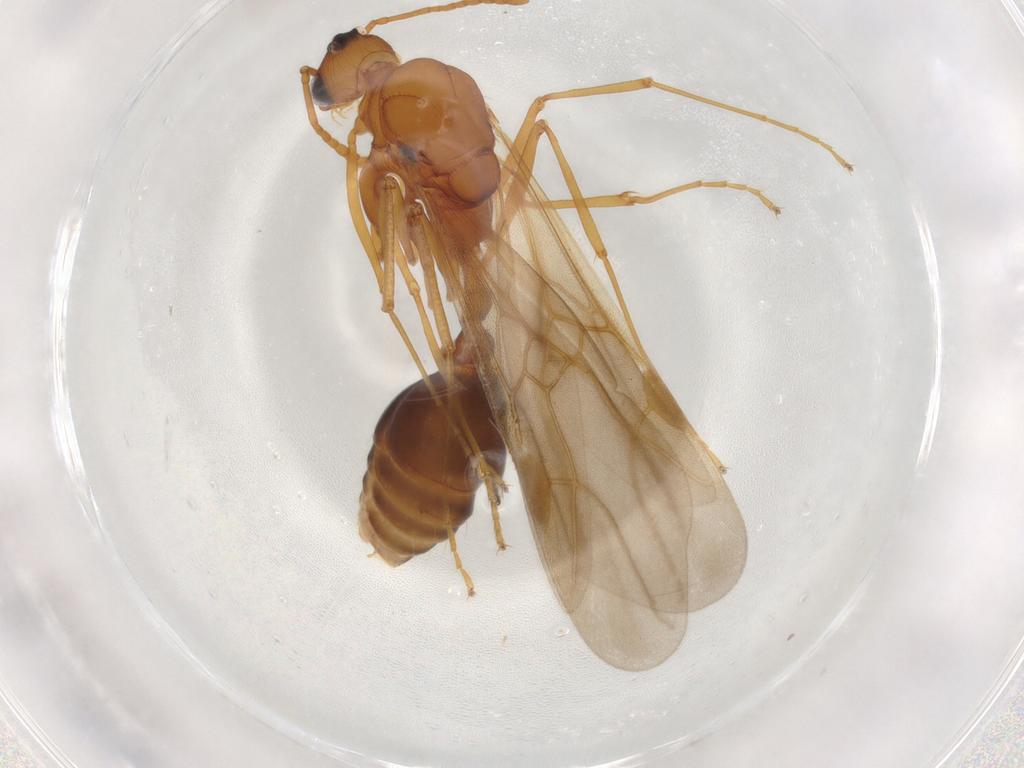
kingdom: Animalia
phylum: Arthropoda
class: Insecta
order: Hymenoptera
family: Formicidae
